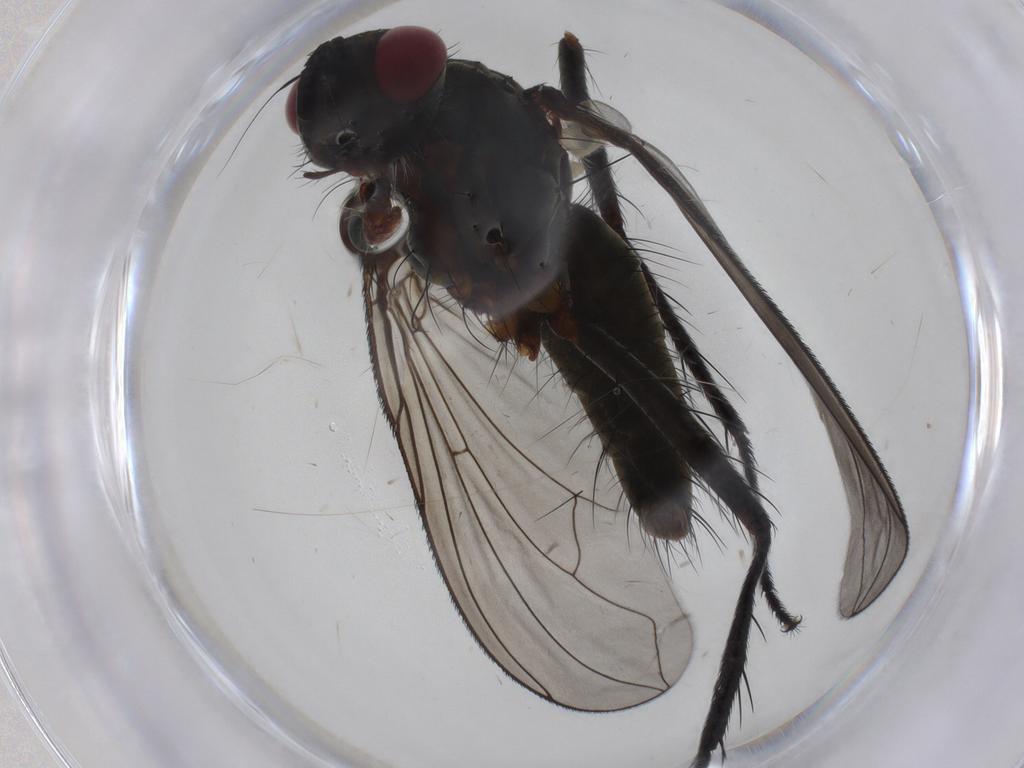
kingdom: Animalia
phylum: Arthropoda
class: Insecta
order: Diptera
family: Tachinidae
